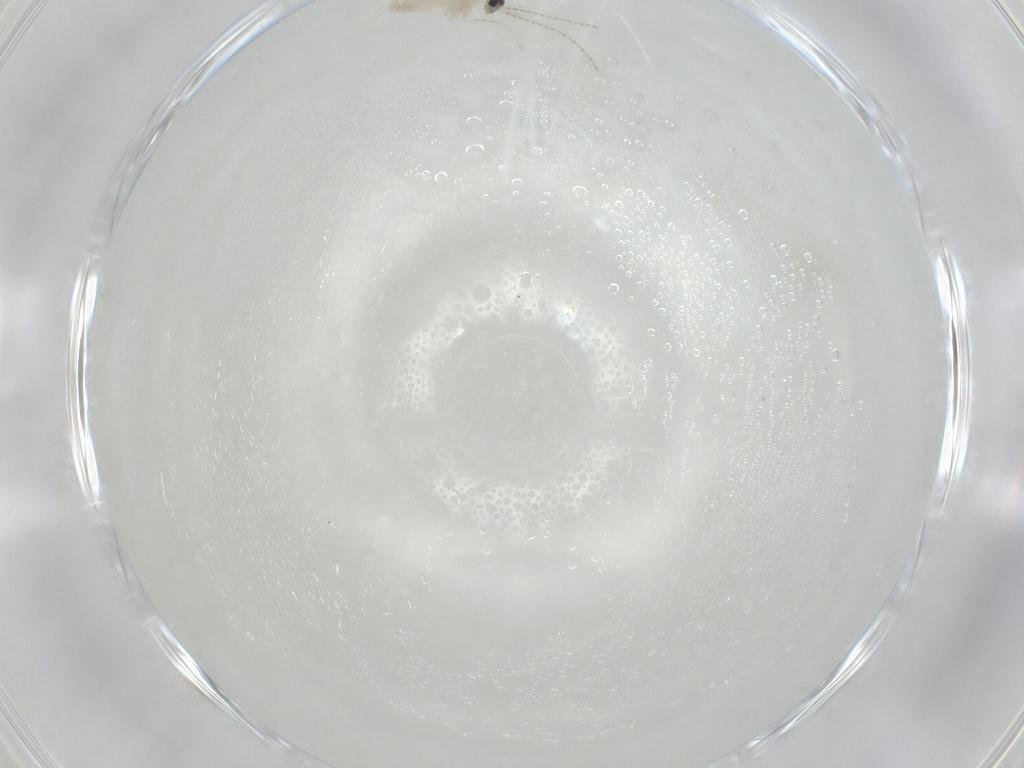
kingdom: Animalia
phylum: Arthropoda
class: Insecta
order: Diptera
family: Cecidomyiidae
